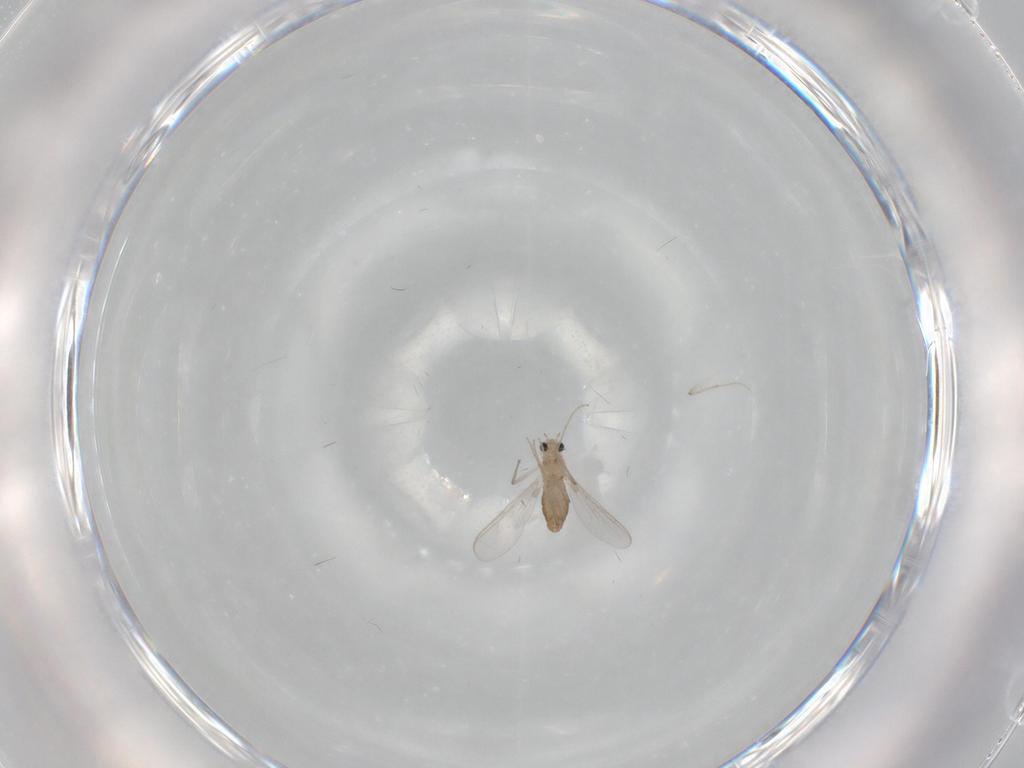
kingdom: Animalia
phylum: Arthropoda
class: Insecta
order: Diptera
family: Chironomidae
